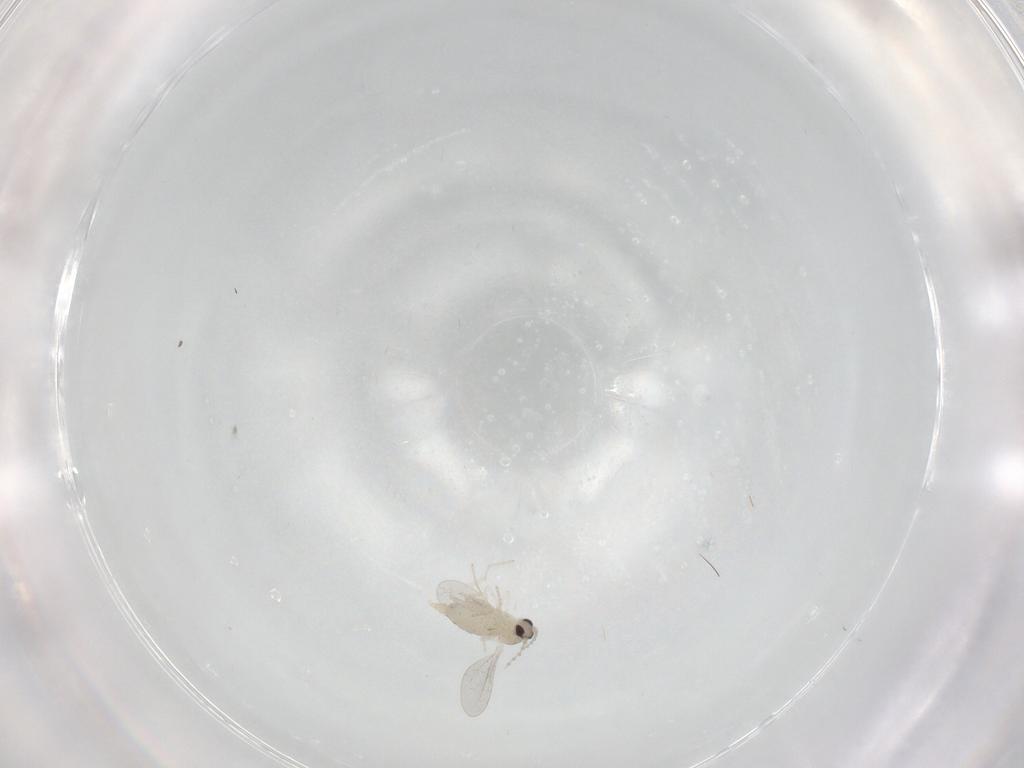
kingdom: Animalia
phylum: Arthropoda
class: Insecta
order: Diptera
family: Cecidomyiidae
